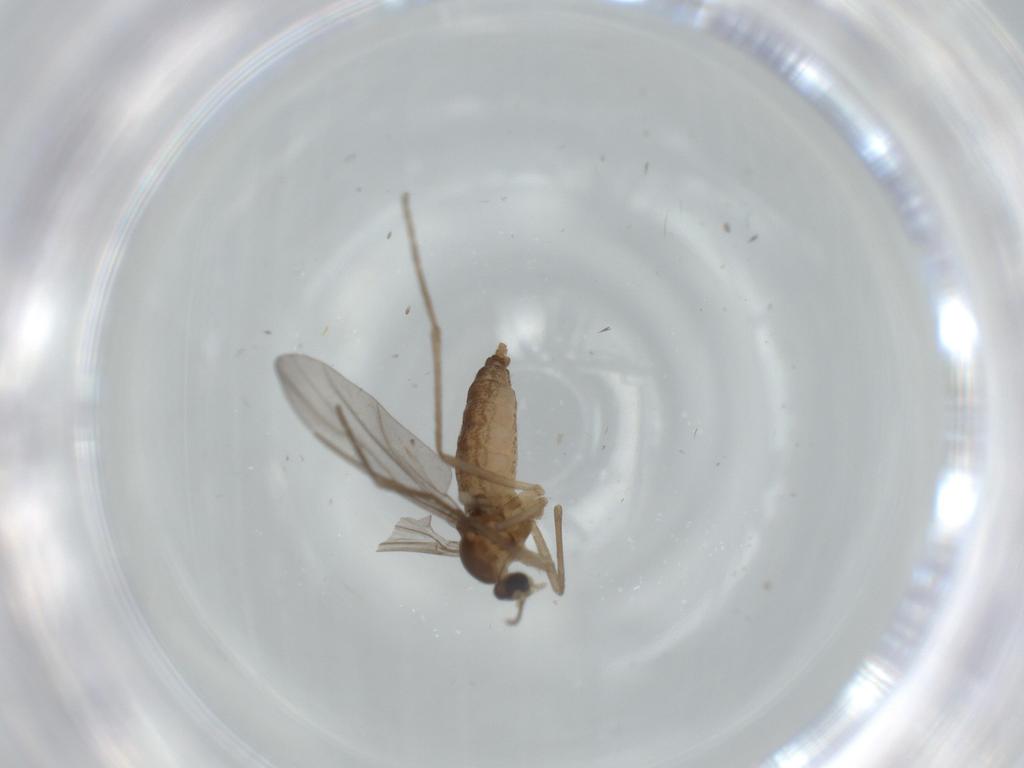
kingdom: Animalia
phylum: Arthropoda
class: Insecta
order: Diptera
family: Cecidomyiidae
